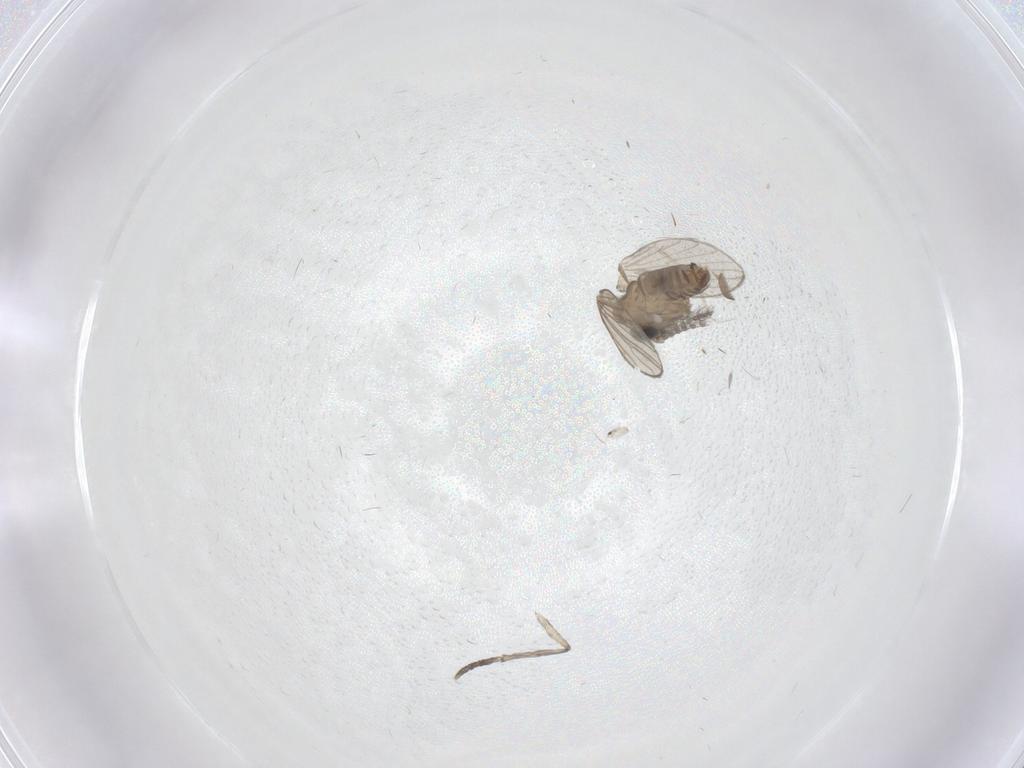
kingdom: Animalia
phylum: Arthropoda
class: Insecta
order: Diptera
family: Cecidomyiidae
